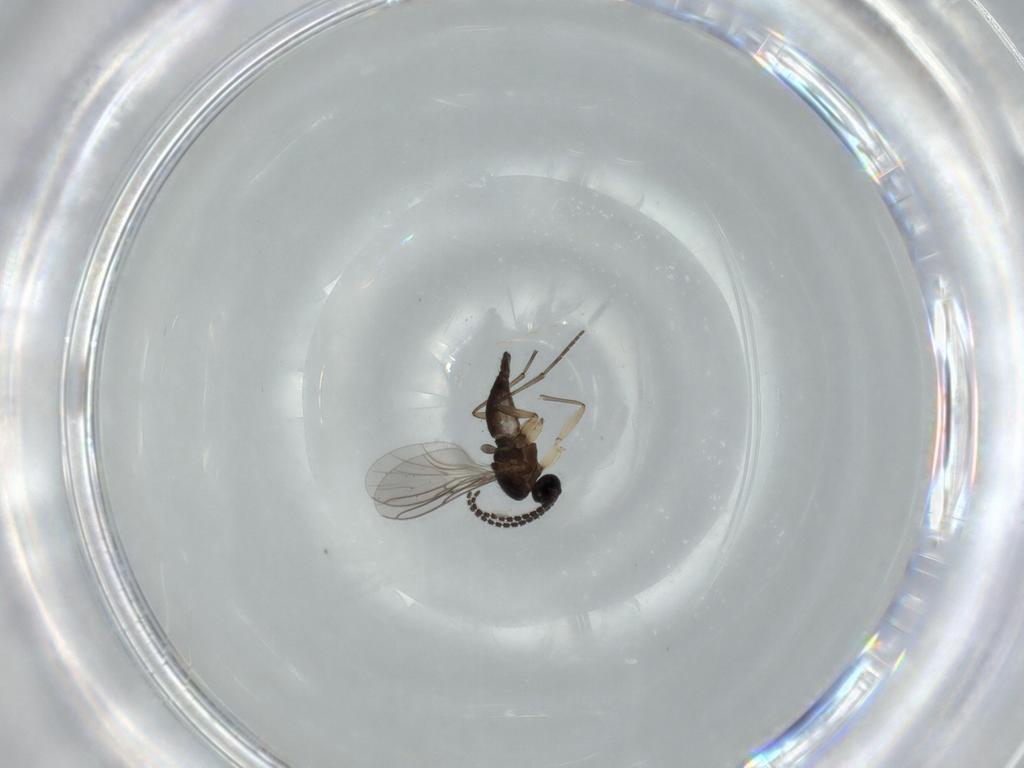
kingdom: Animalia
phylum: Arthropoda
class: Insecta
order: Diptera
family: Sciaridae
